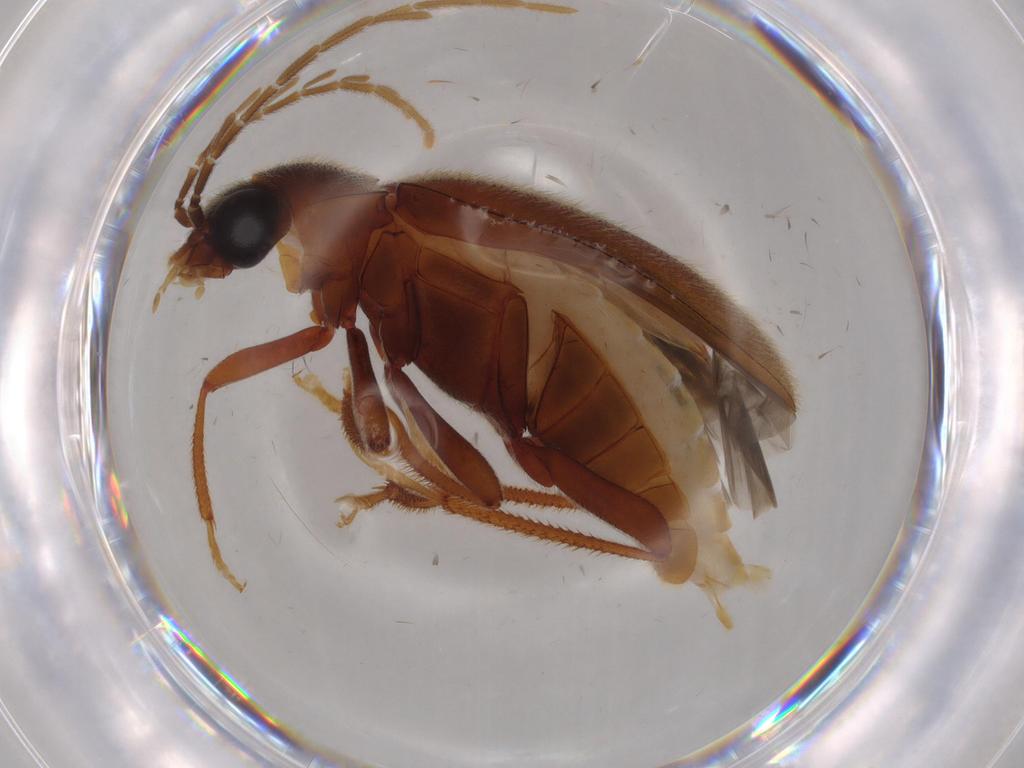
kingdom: Animalia
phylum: Arthropoda
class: Insecta
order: Coleoptera
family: Ptilodactylidae
